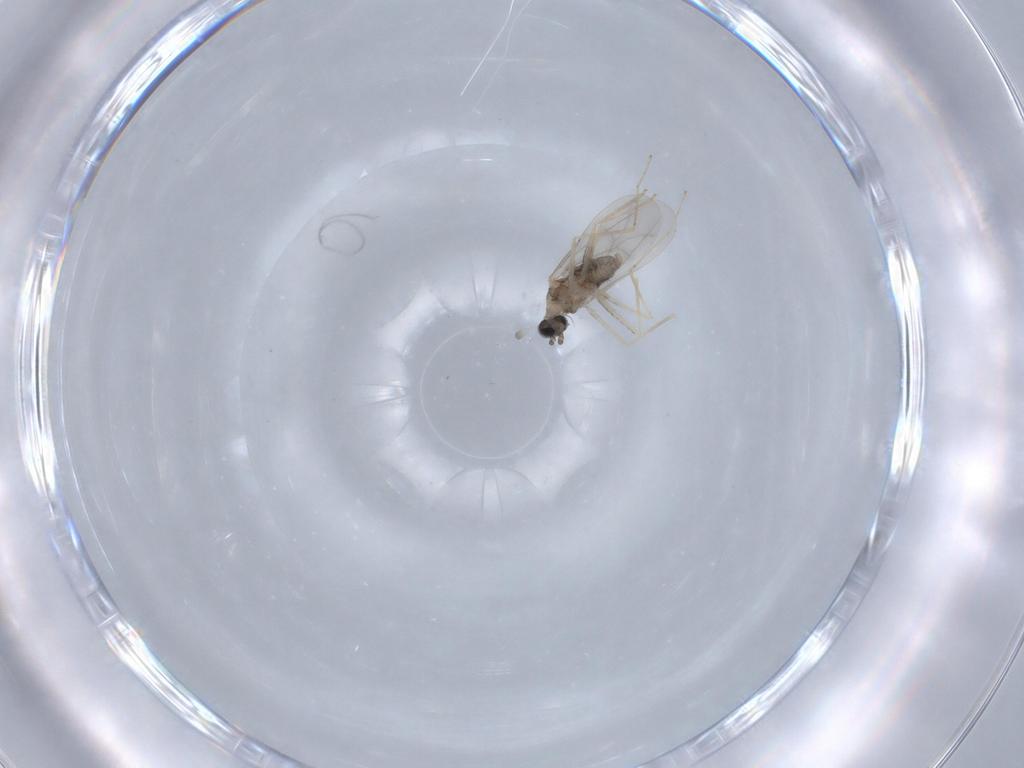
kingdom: Animalia
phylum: Arthropoda
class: Insecta
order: Diptera
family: Cecidomyiidae
